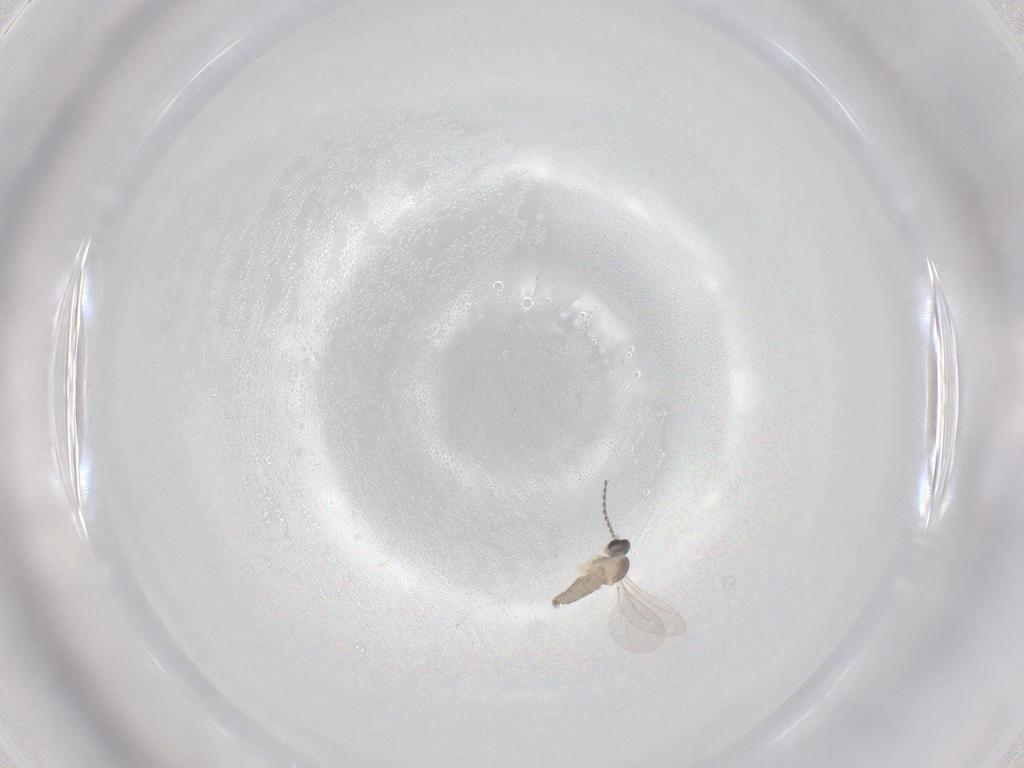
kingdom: Animalia
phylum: Arthropoda
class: Insecta
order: Diptera
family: Cecidomyiidae
